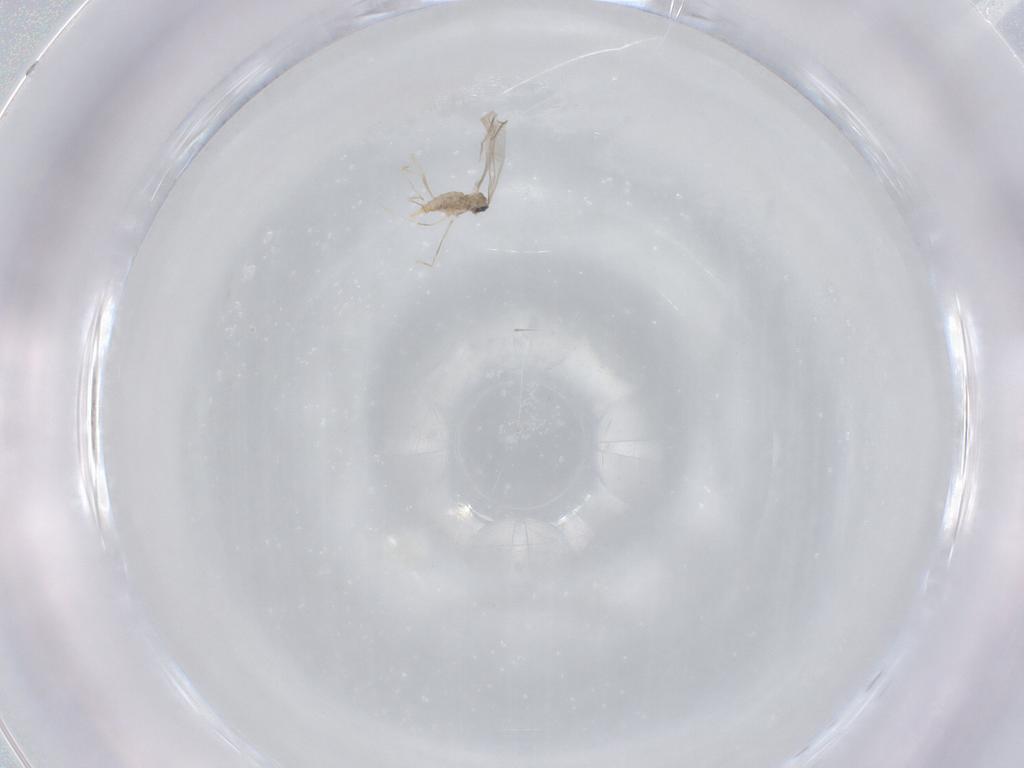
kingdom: Animalia
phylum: Arthropoda
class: Insecta
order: Diptera
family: Cecidomyiidae
